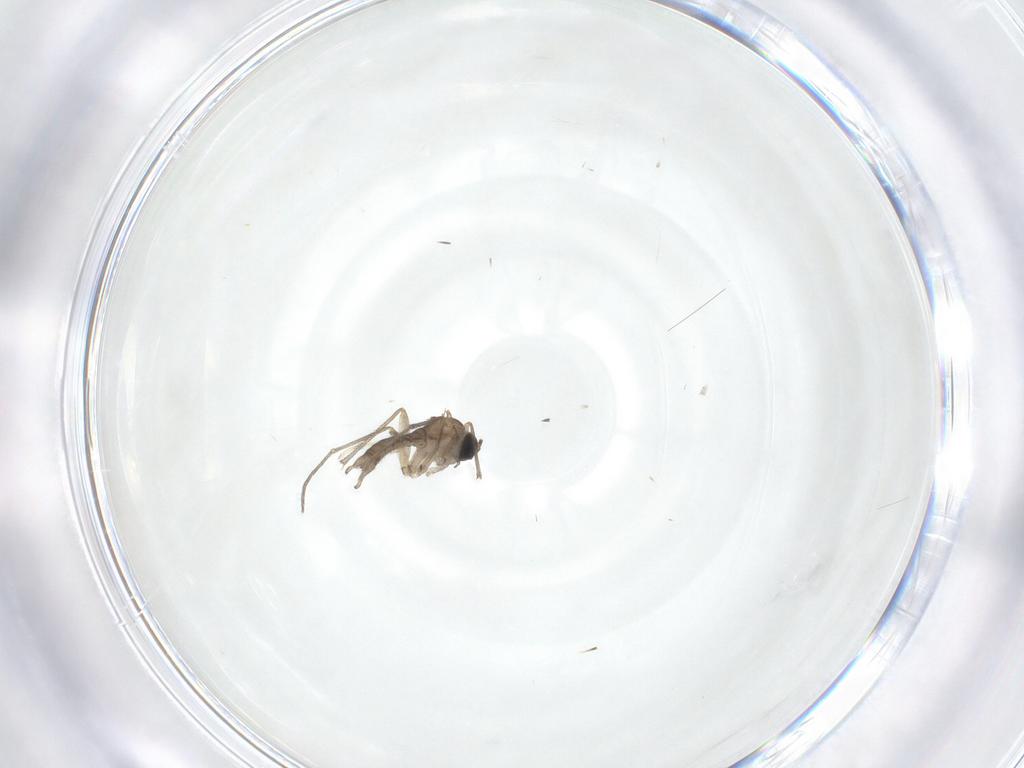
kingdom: Animalia
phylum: Arthropoda
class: Insecta
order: Diptera
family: Sciaridae
